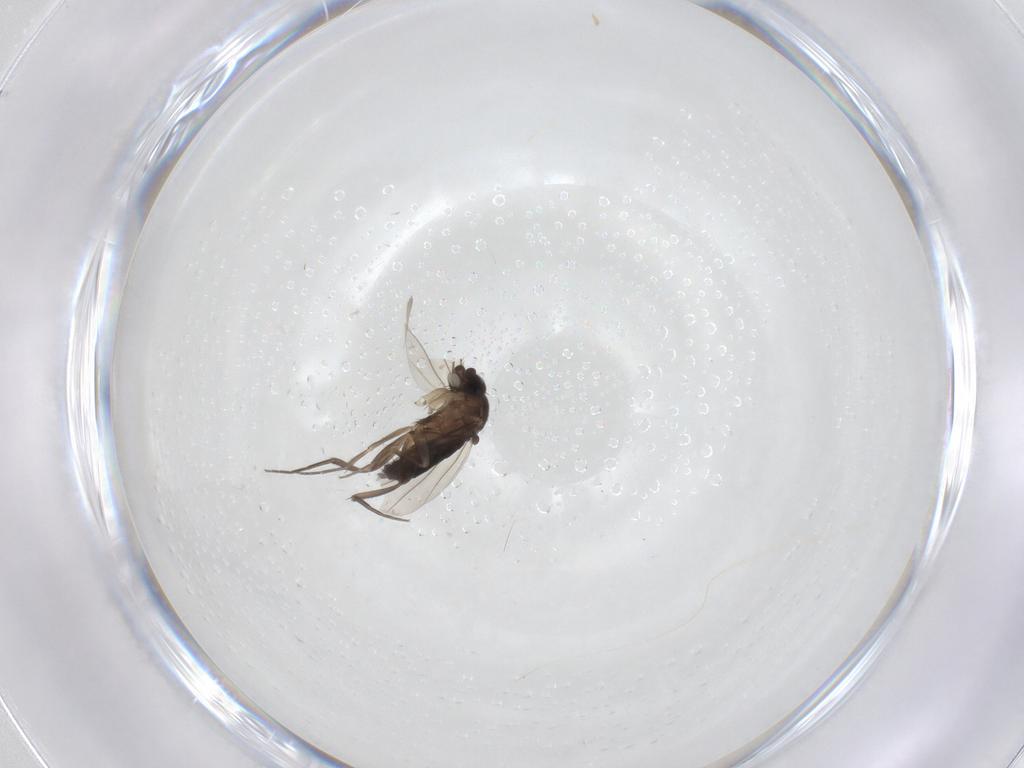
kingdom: Animalia
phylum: Arthropoda
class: Insecta
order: Diptera
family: Phoridae
